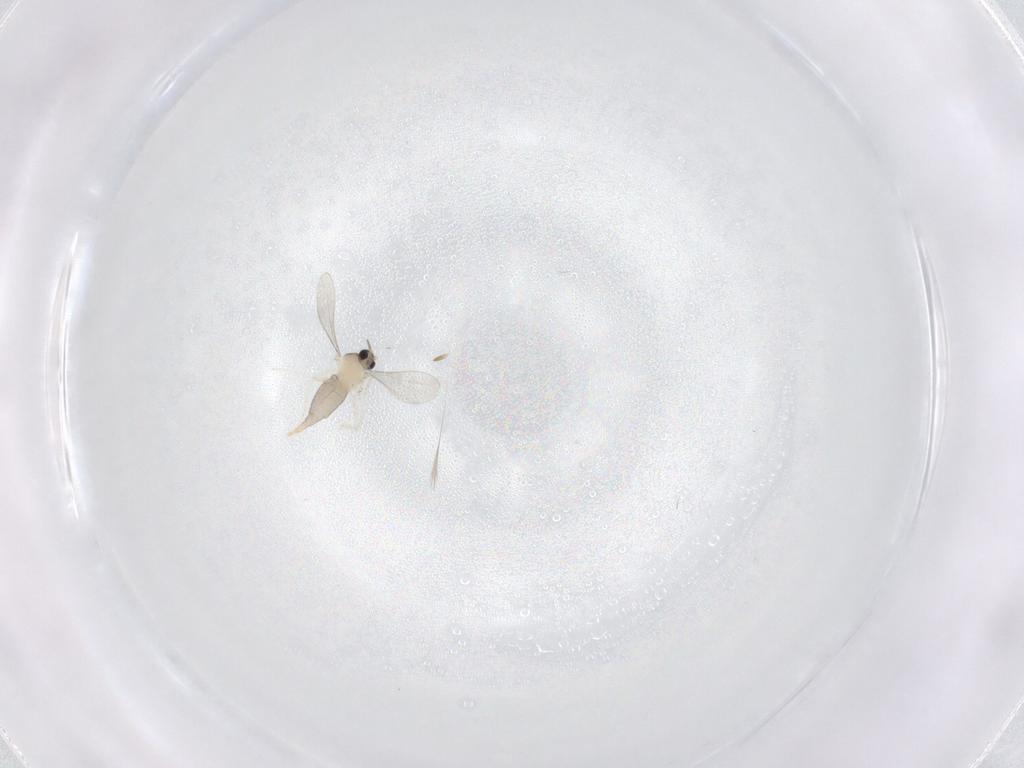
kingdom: Animalia
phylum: Arthropoda
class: Insecta
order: Diptera
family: Cecidomyiidae
